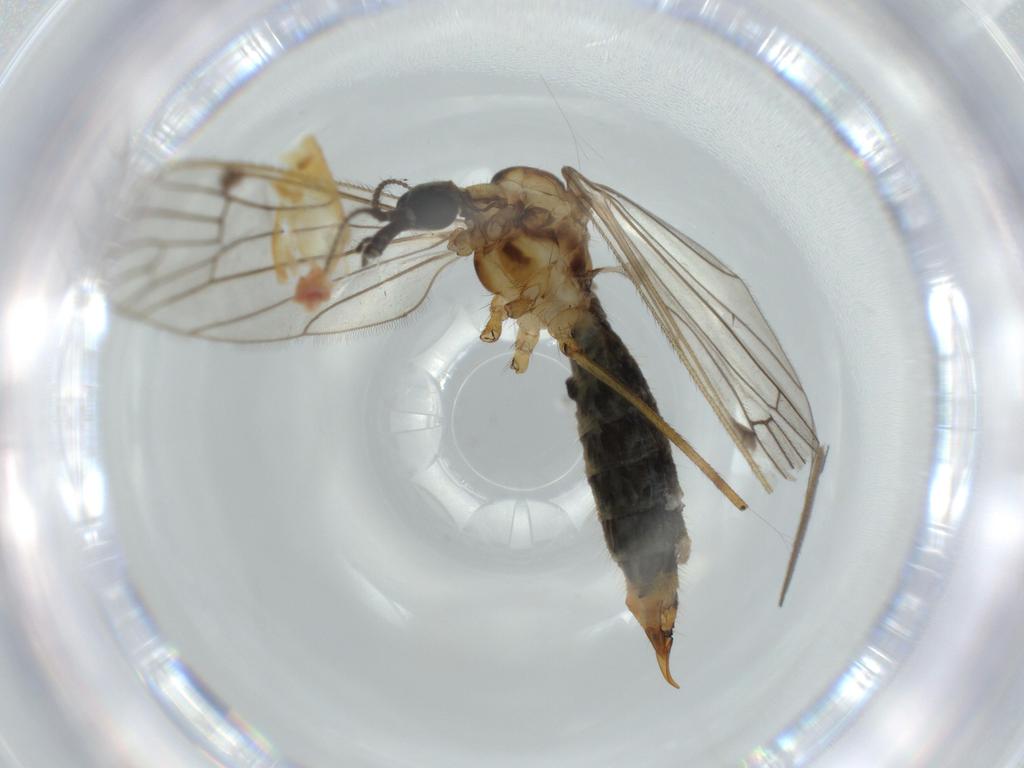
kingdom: Animalia
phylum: Arthropoda
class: Insecta
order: Diptera
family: Limoniidae
